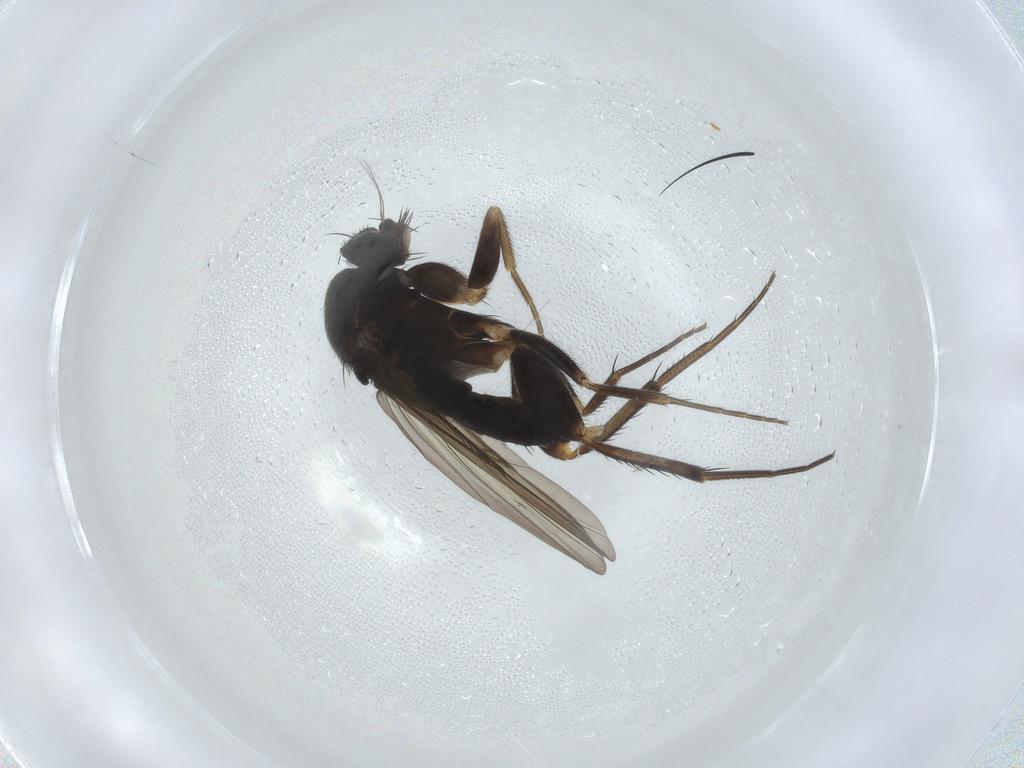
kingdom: Animalia
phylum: Arthropoda
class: Insecta
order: Diptera
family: Phoridae
